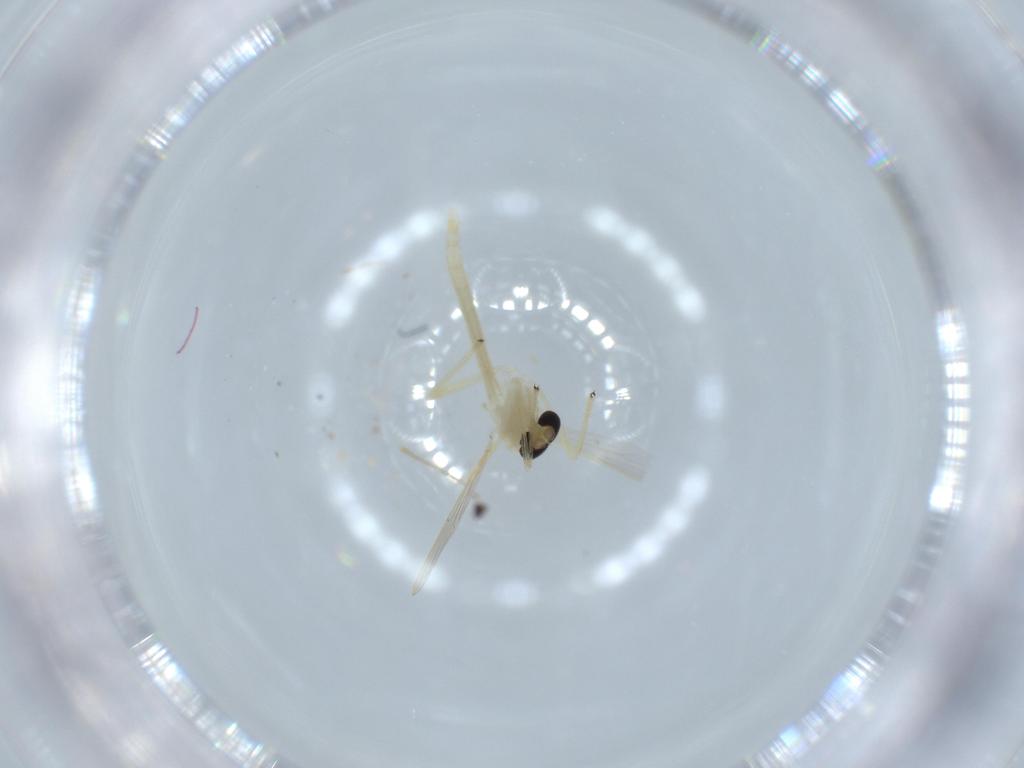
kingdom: Animalia
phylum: Arthropoda
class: Insecta
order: Diptera
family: Chironomidae
